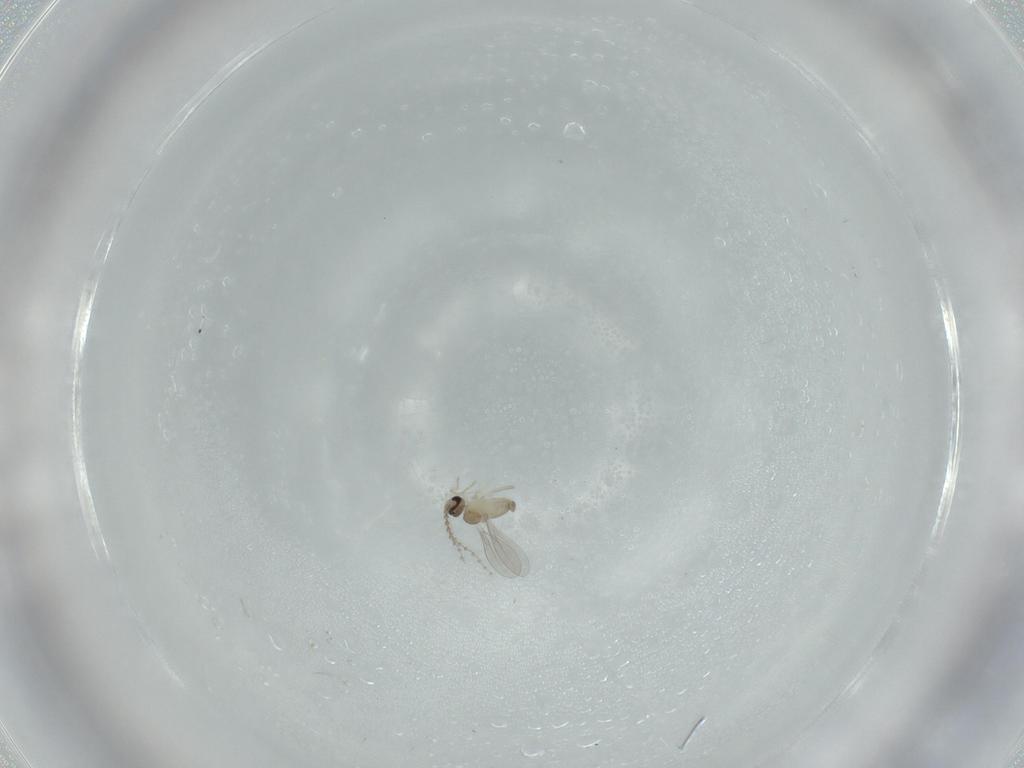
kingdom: Animalia
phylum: Arthropoda
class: Insecta
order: Diptera
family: Cecidomyiidae
